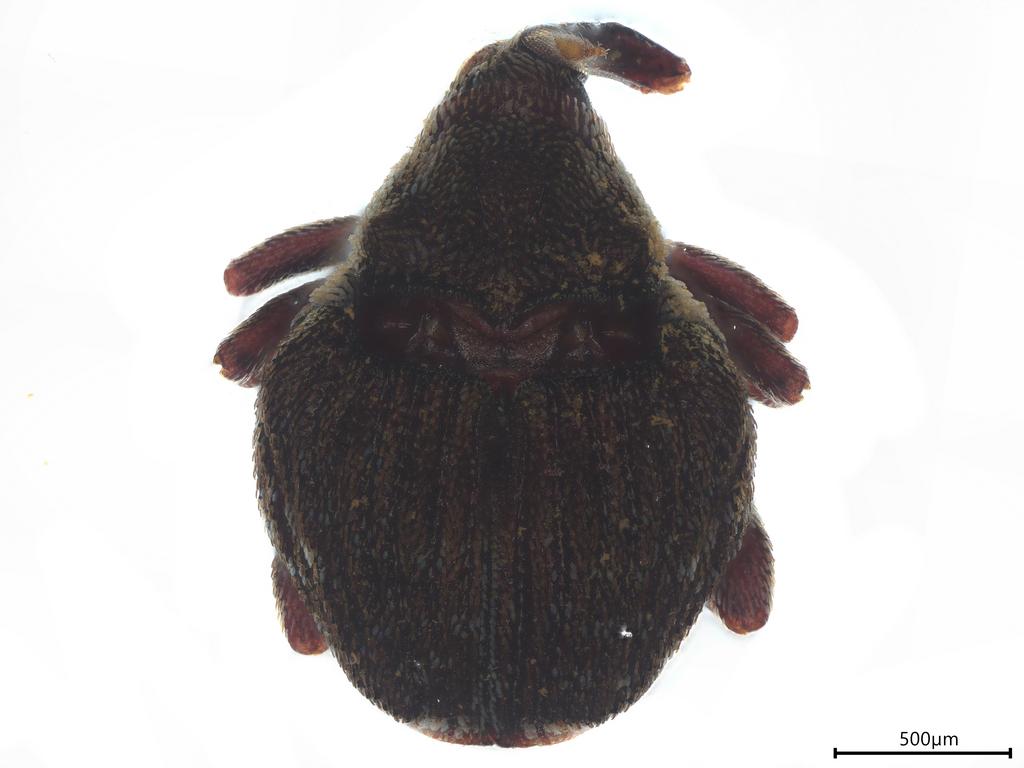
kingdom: Animalia
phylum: Arthropoda
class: Insecta
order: Coleoptera
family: Curculionidae
